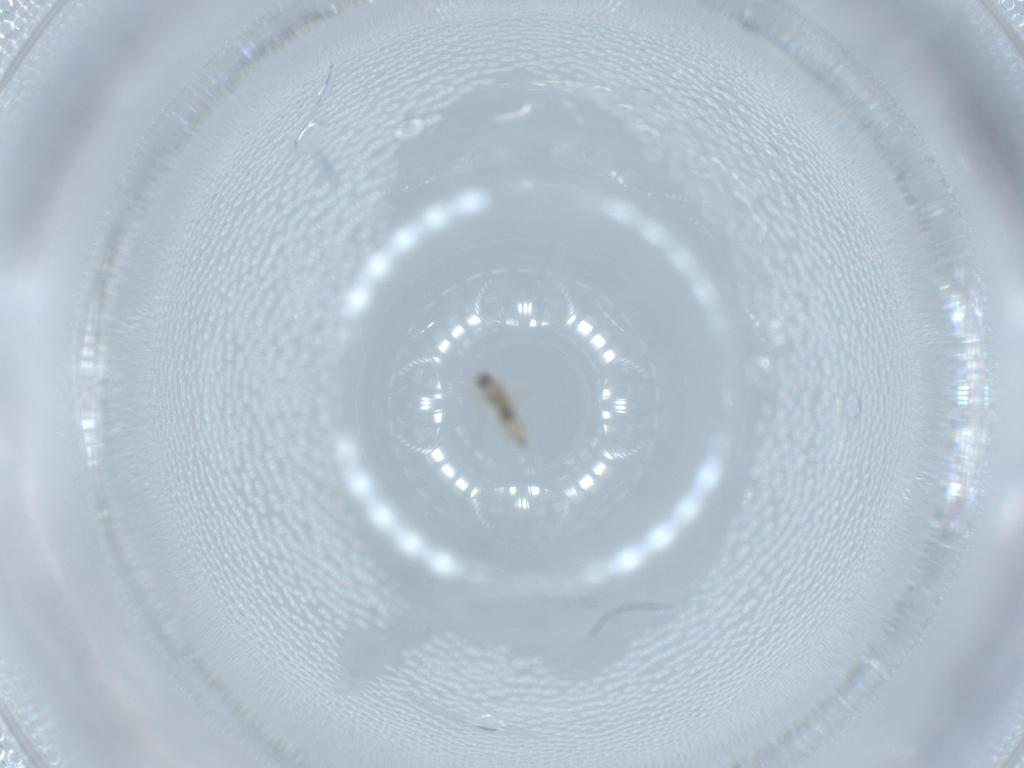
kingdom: Animalia
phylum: Arthropoda
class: Insecta
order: Diptera
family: Cecidomyiidae
